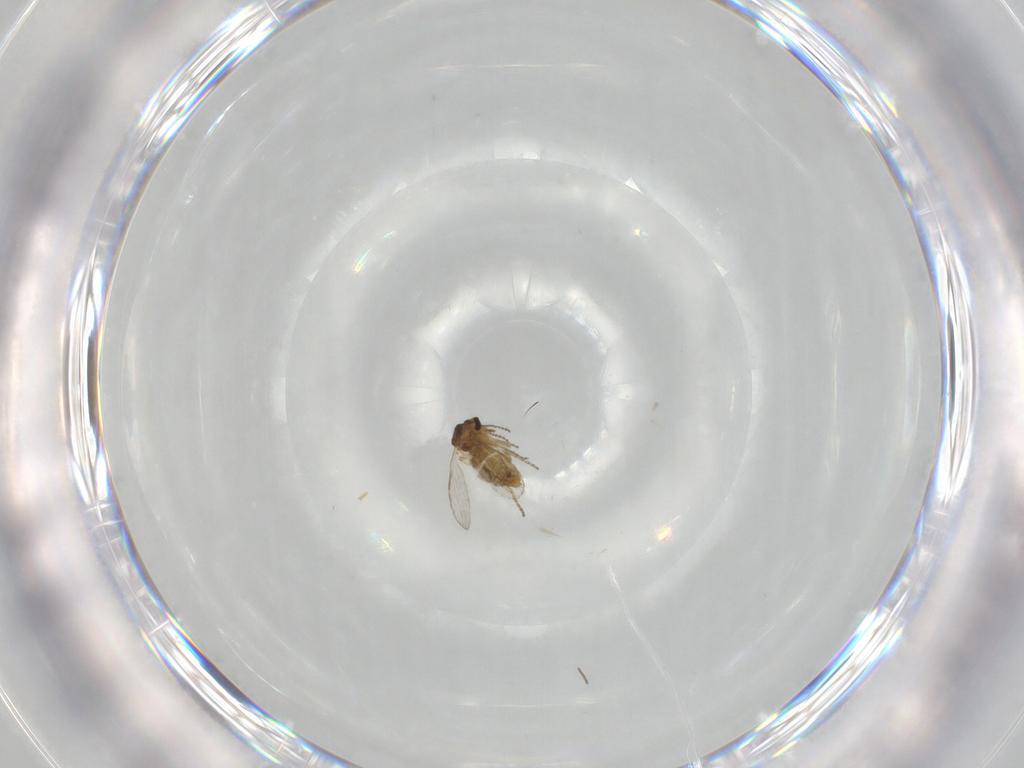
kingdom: Animalia
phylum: Arthropoda
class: Insecta
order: Diptera
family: Ceratopogonidae
